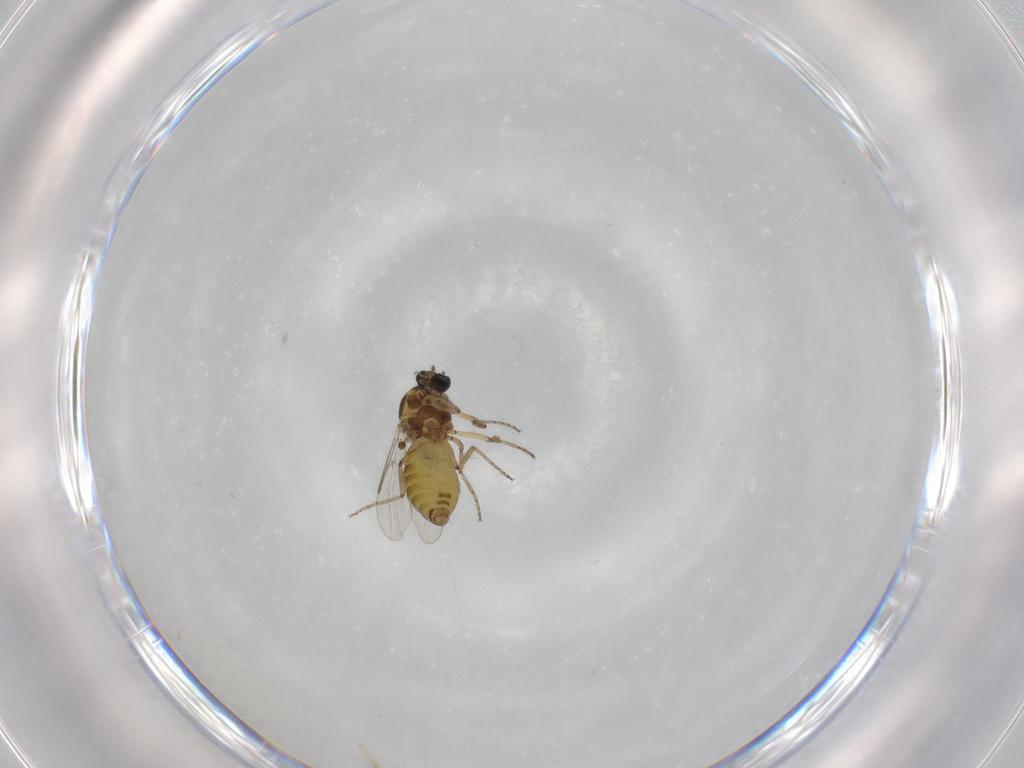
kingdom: Animalia
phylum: Arthropoda
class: Insecta
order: Diptera
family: Ceratopogonidae
